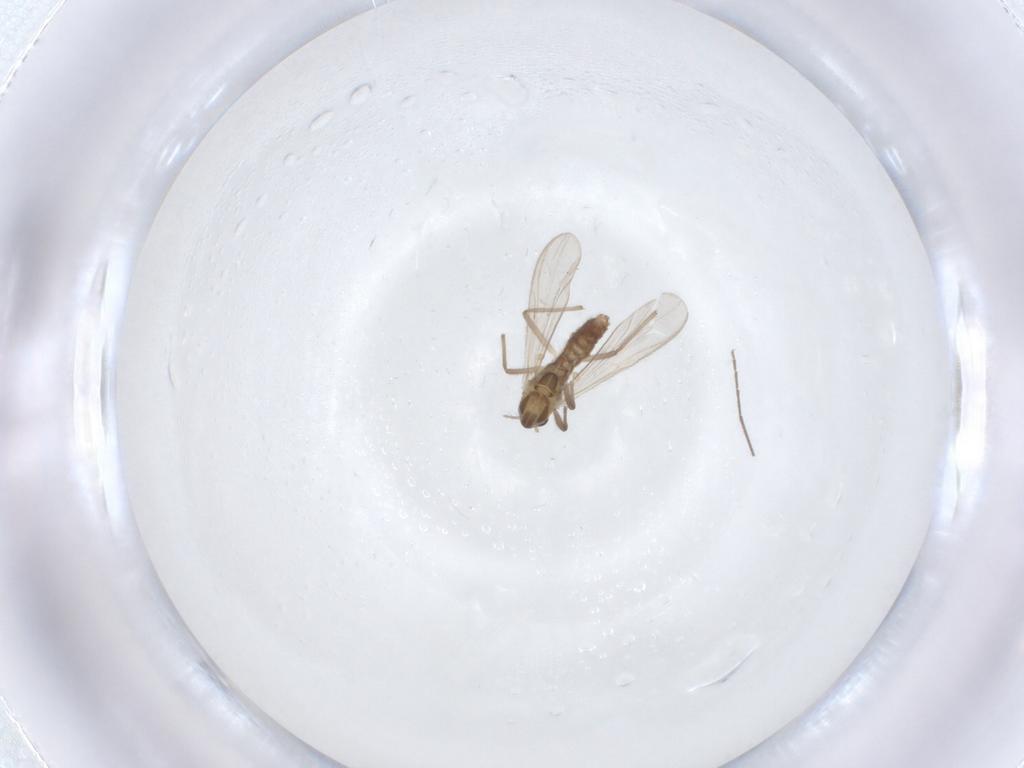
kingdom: Animalia
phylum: Arthropoda
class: Insecta
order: Diptera
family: Chironomidae
